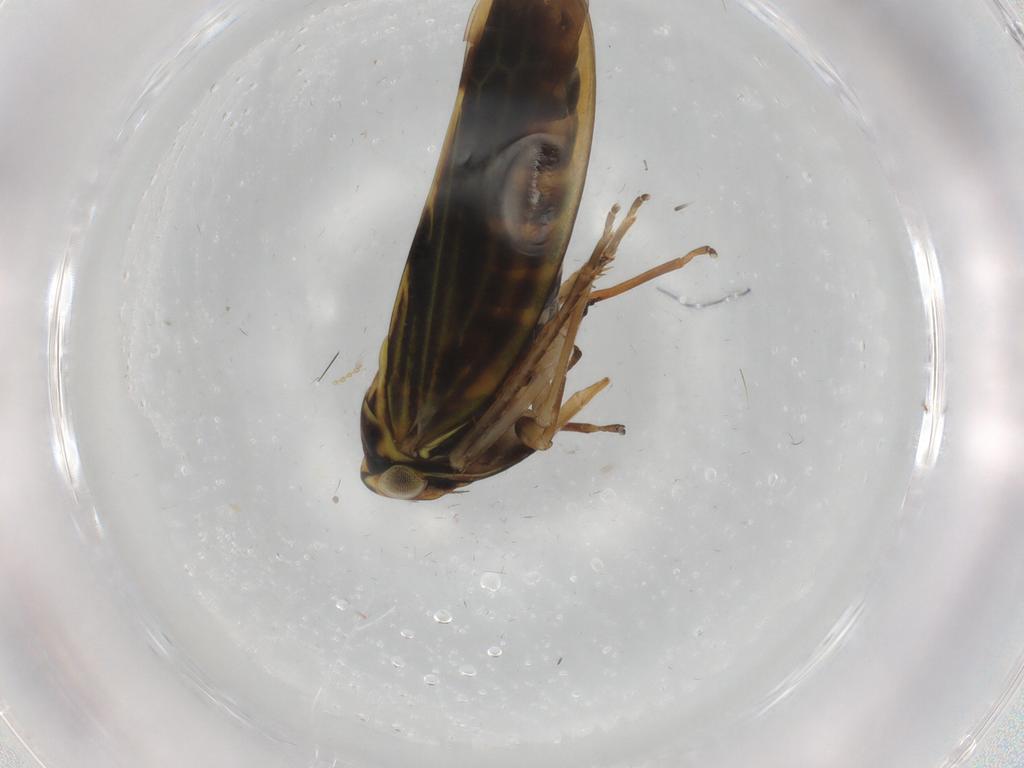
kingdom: Animalia
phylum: Arthropoda
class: Insecta
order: Hemiptera
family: Cicadellidae
